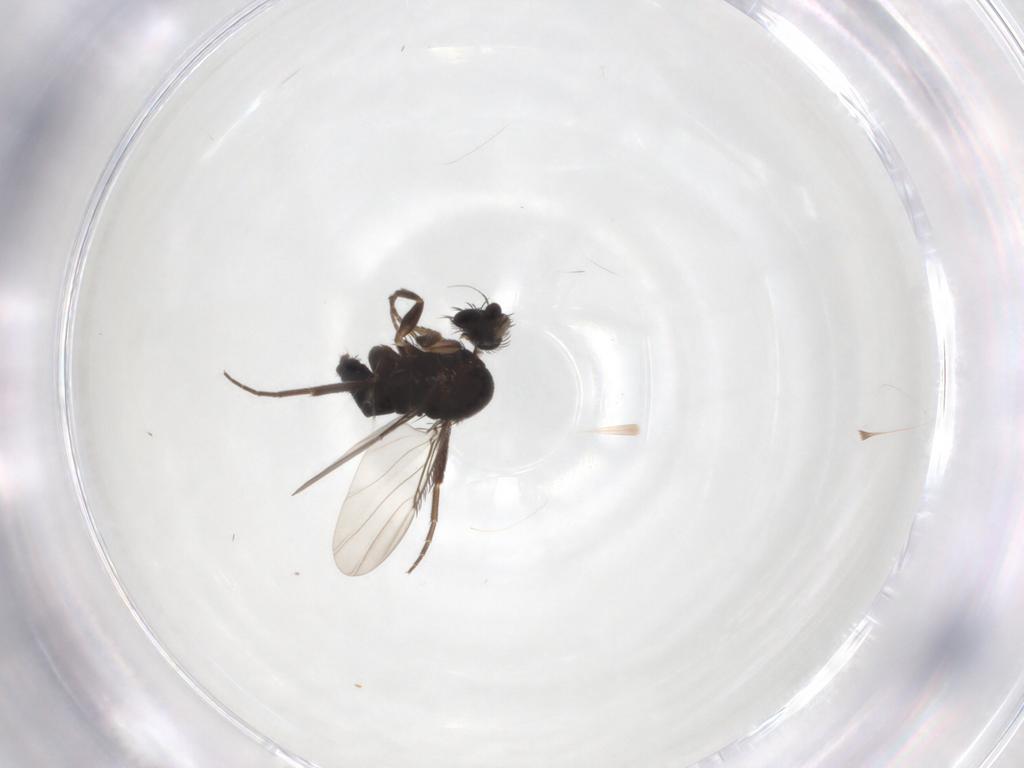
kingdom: Animalia
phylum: Arthropoda
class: Insecta
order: Diptera
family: Phoridae
